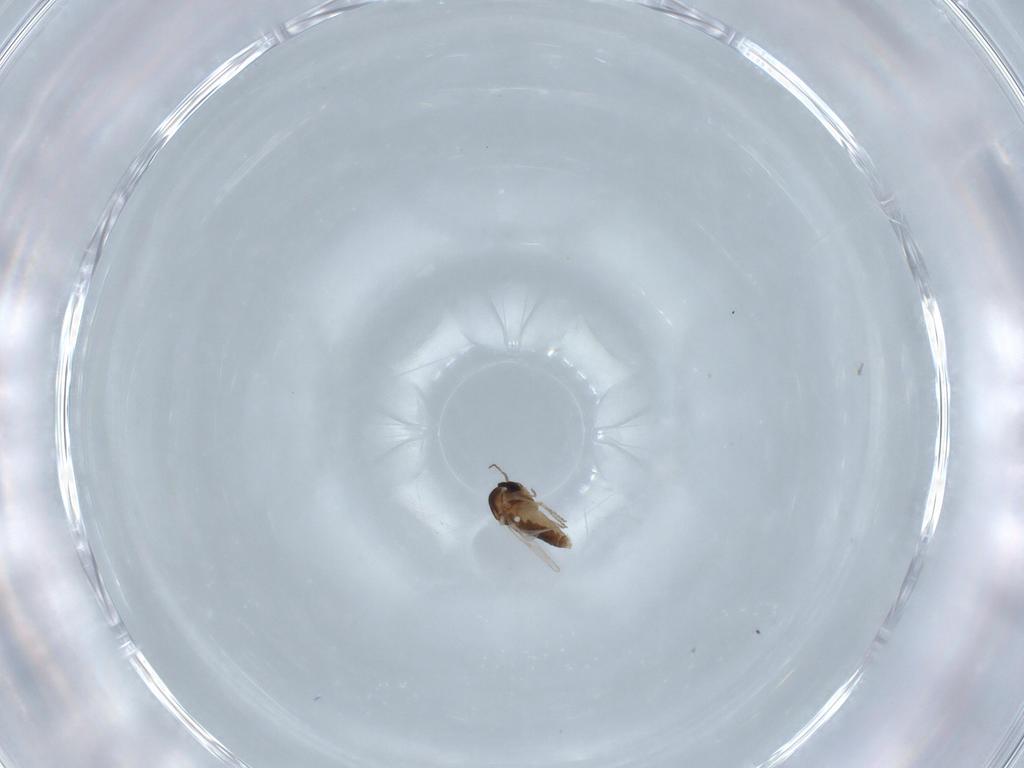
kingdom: Animalia
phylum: Arthropoda
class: Insecta
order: Diptera
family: Ceratopogonidae
